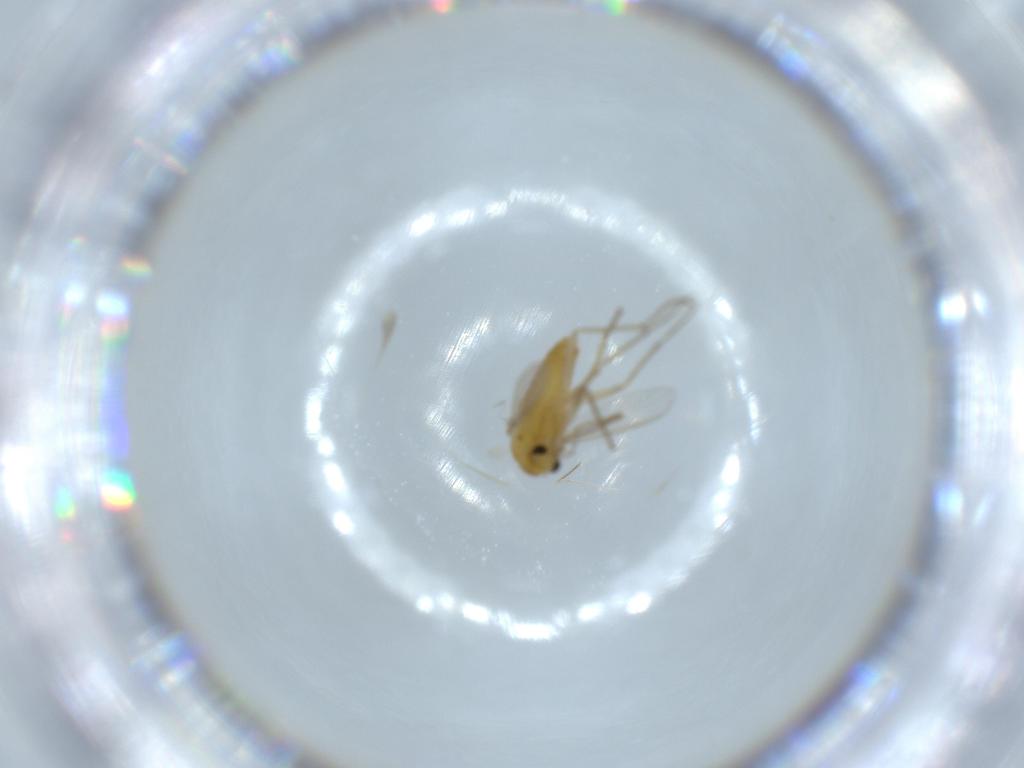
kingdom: Animalia
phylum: Arthropoda
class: Insecta
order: Diptera
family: Chironomidae
